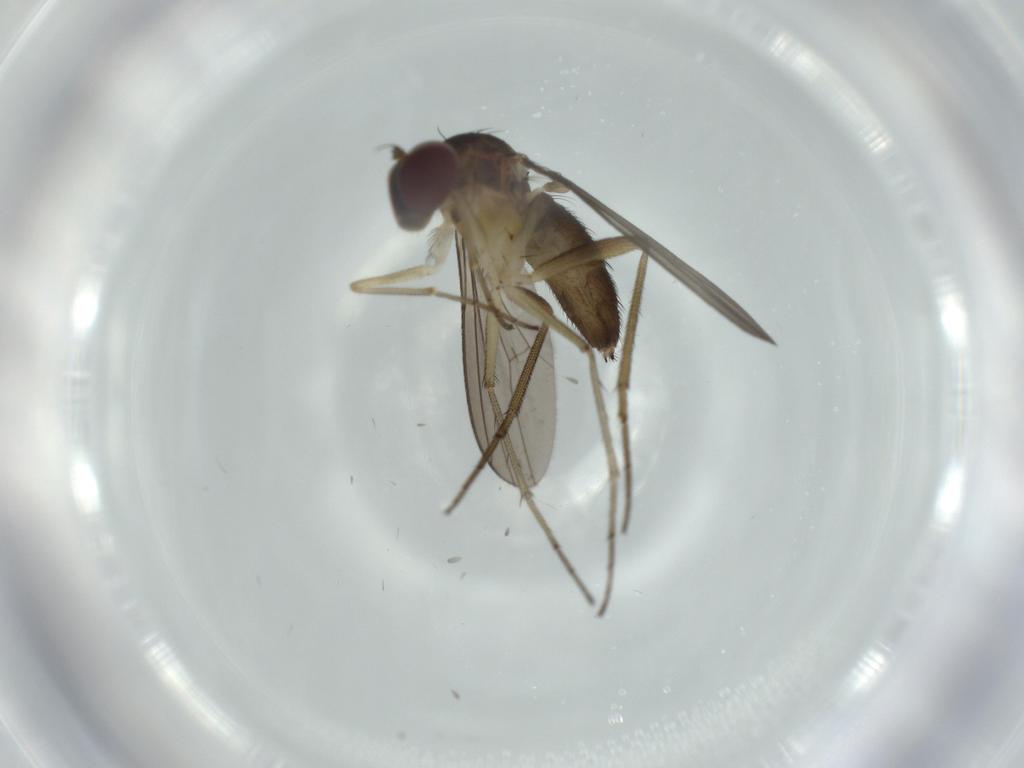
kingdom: Animalia
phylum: Arthropoda
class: Insecta
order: Diptera
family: Dolichopodidae
